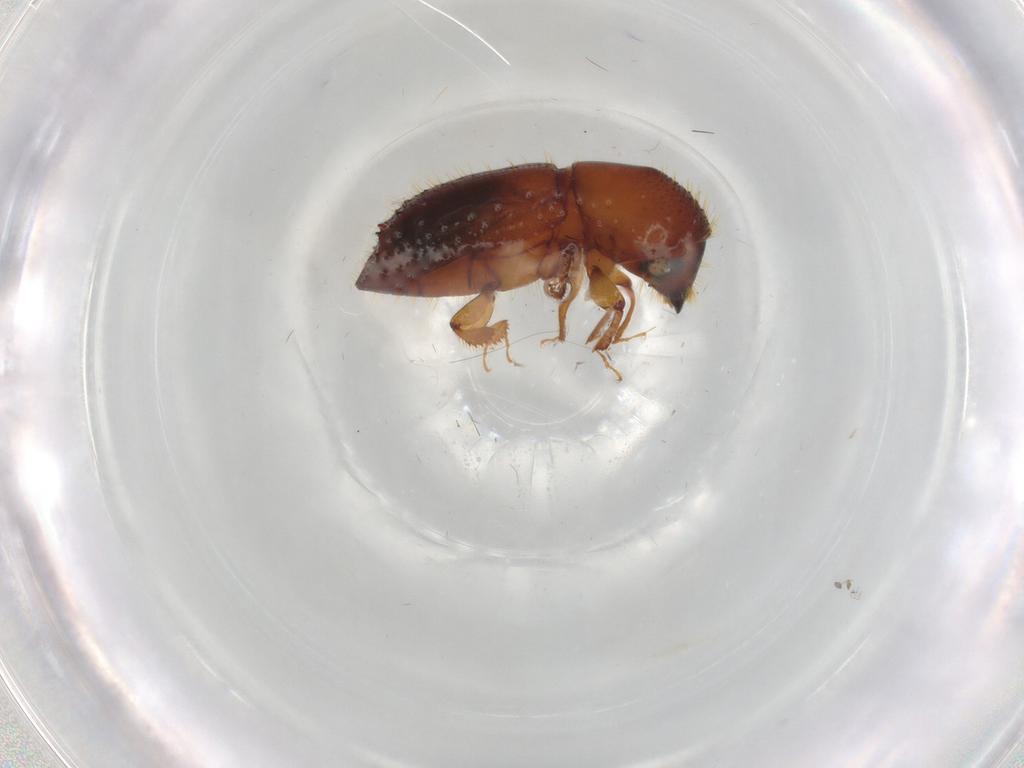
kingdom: Animalia
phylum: Arthropoda
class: Insecta
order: Coleoptera
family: Curculionidae
